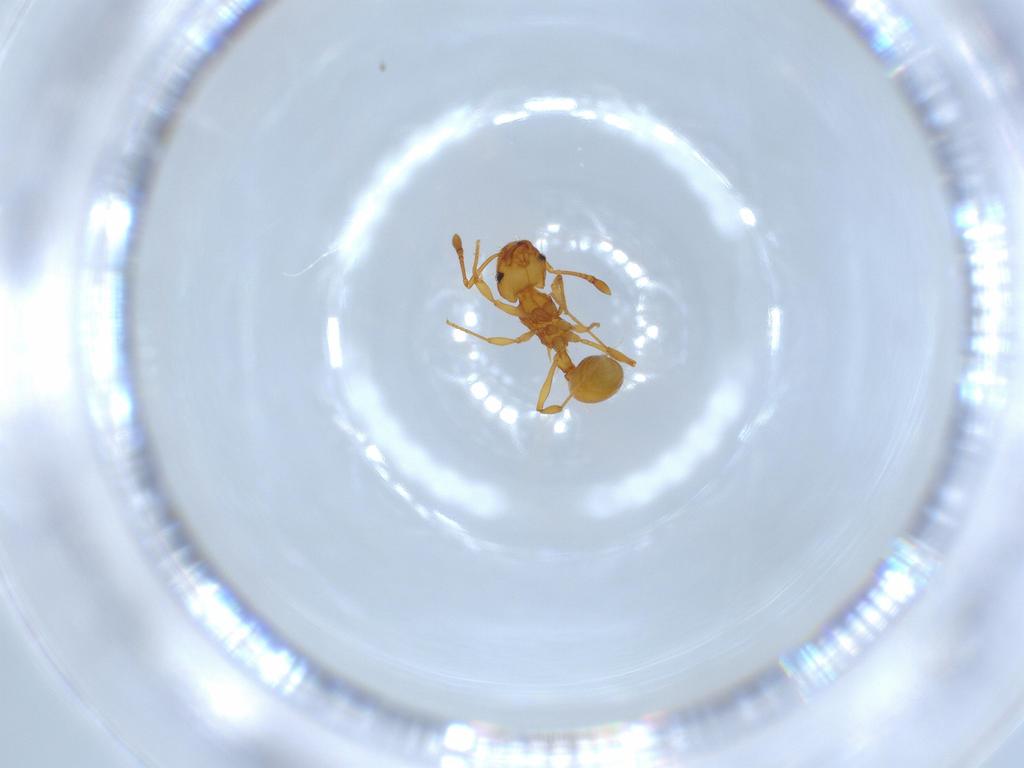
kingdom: Animalia
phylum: Arthropoda
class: Insecta
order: Hymenoptera
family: Formicidae
